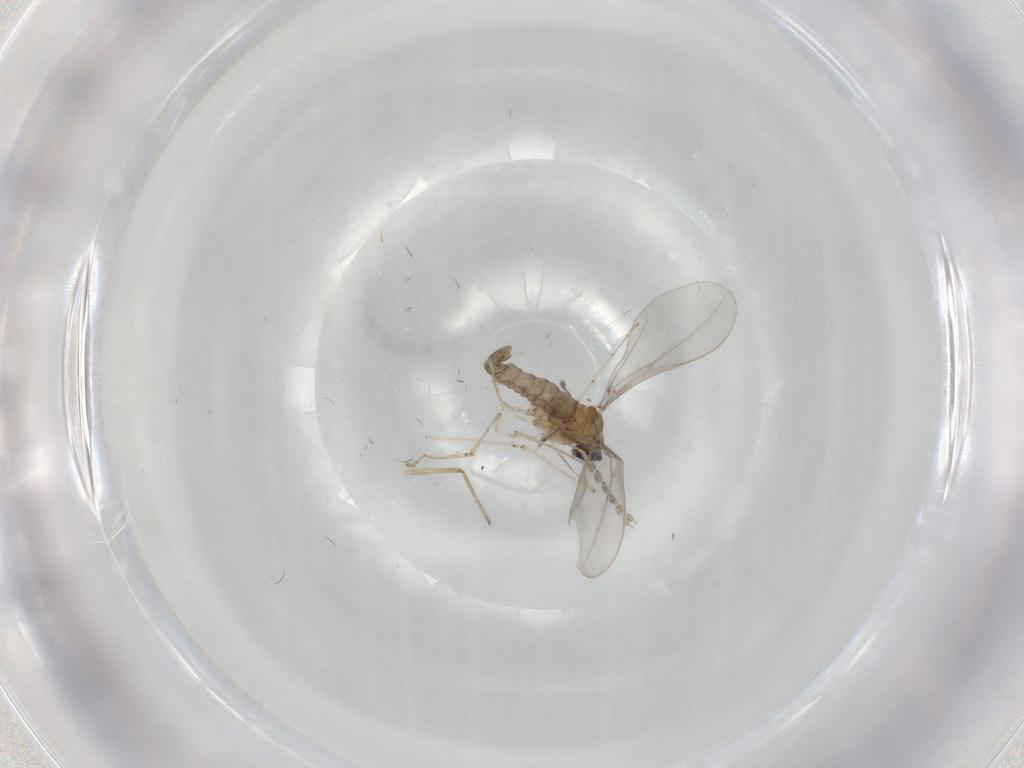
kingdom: Animalia
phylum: Arthropoda
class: Insecta
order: Diptera
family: Cecidomyiidae
